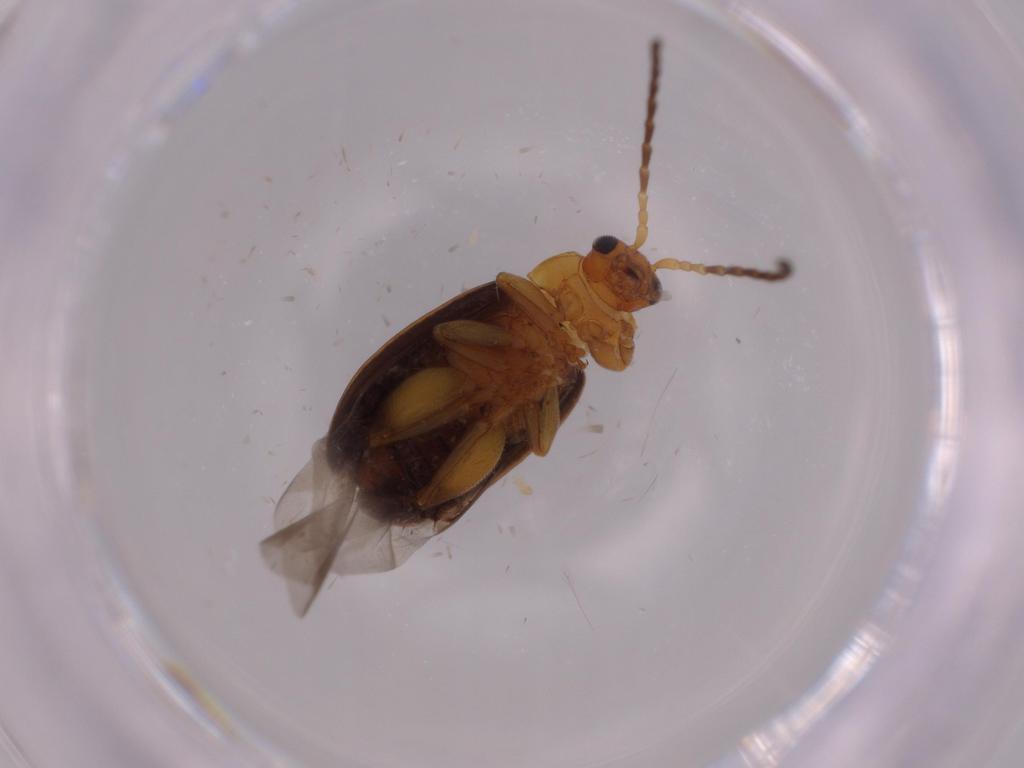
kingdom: Animalia
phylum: Arthropoda
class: Insecta
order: Coleoptera
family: Chrysomelidae
